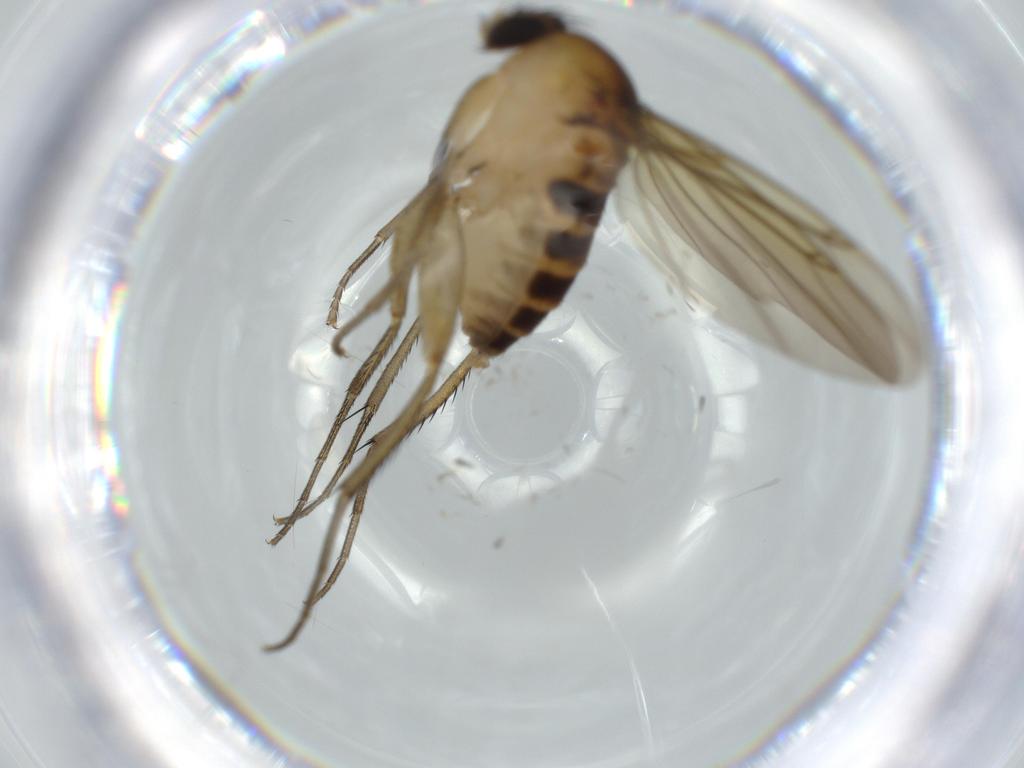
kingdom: Animalia
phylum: Arthropoda
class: Insecta
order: Diptera
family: Phoridae
